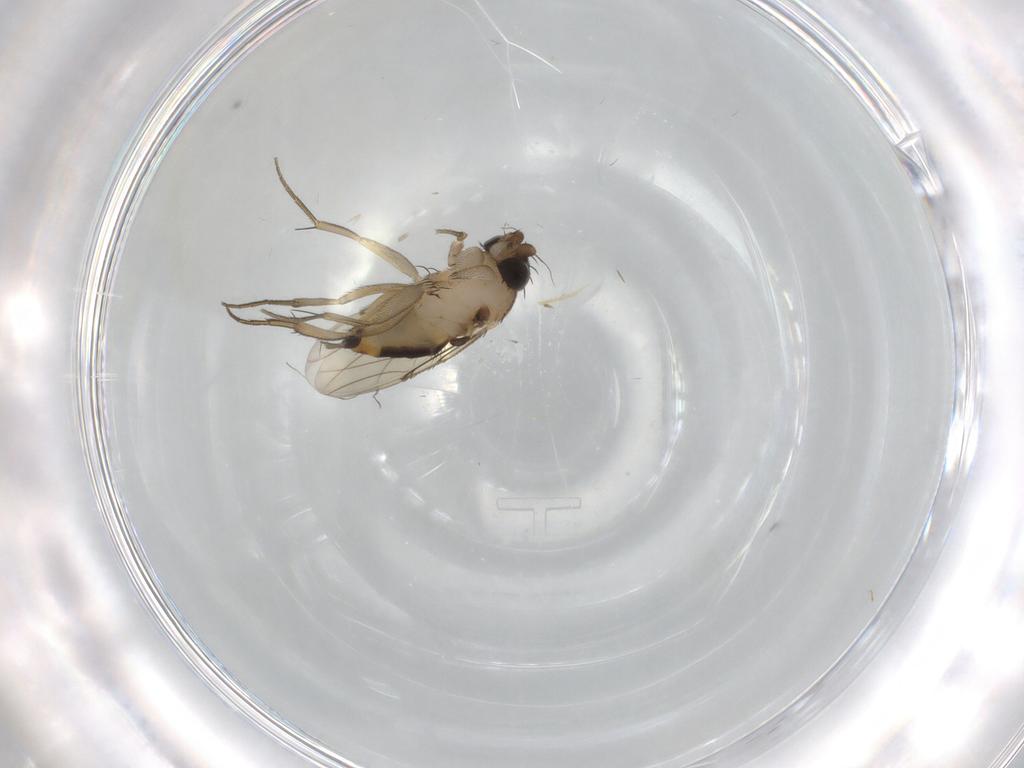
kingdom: Animalia
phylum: Arthropoda
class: Insecta
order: Diptera
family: Phoridae
